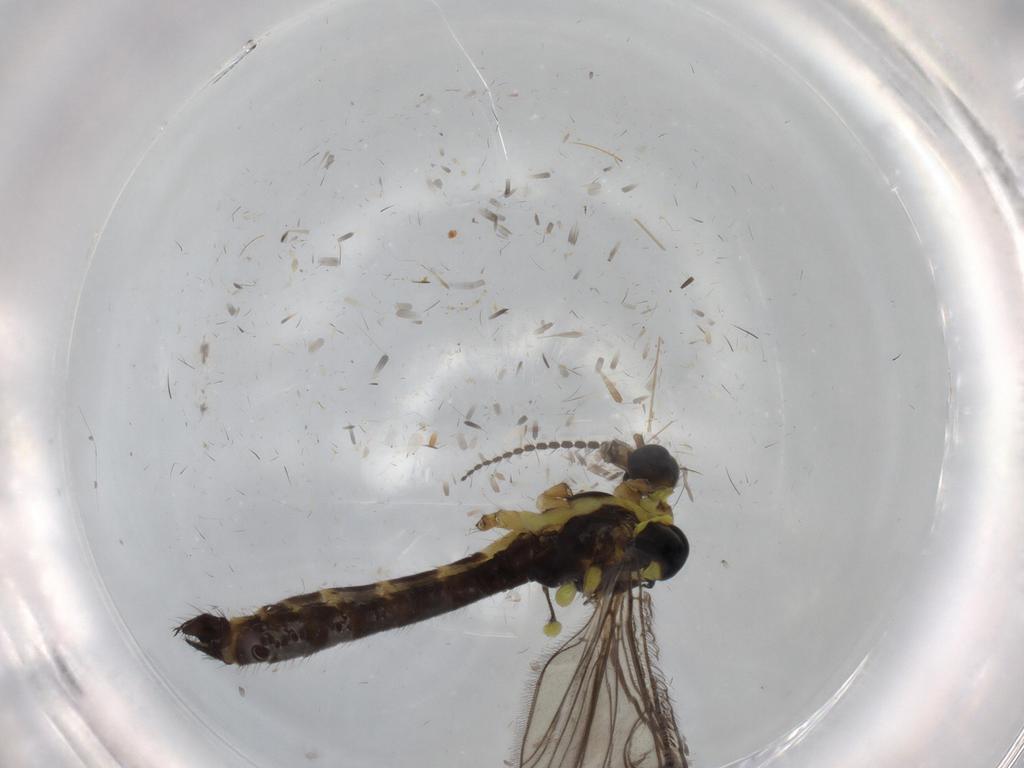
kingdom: Animalia
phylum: Arthropoda
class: Insecta
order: Diptera
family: Limoniidae
